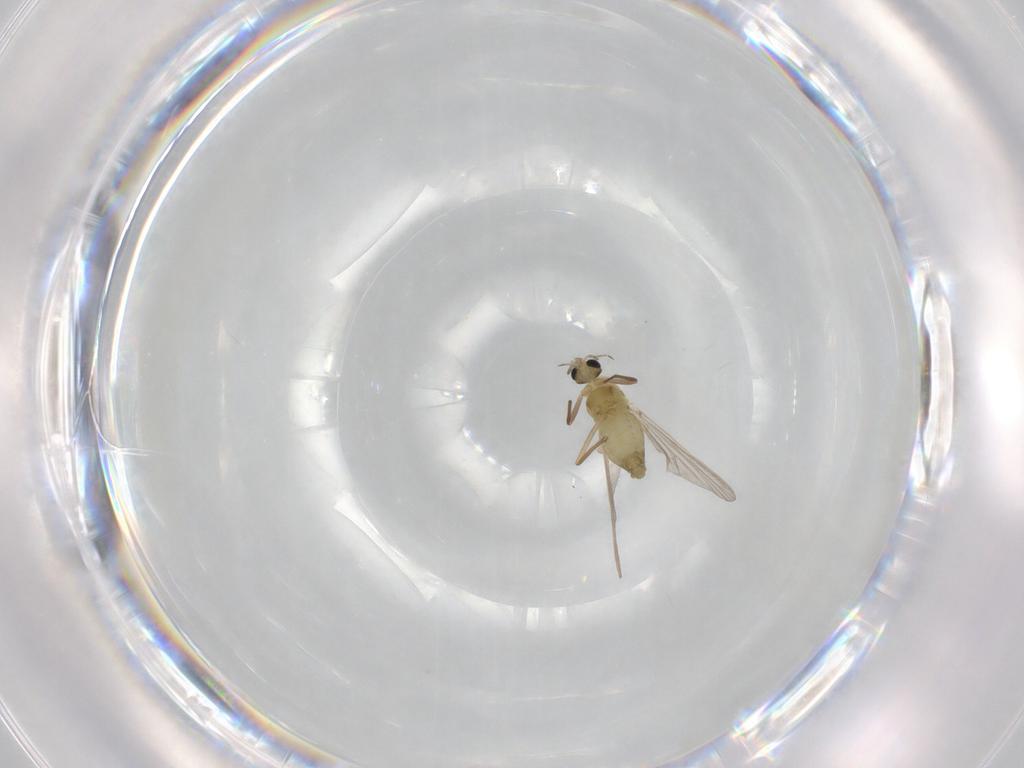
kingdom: Animalia
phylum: Arthropoda
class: Insecta
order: Diptera
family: Chironomidae
